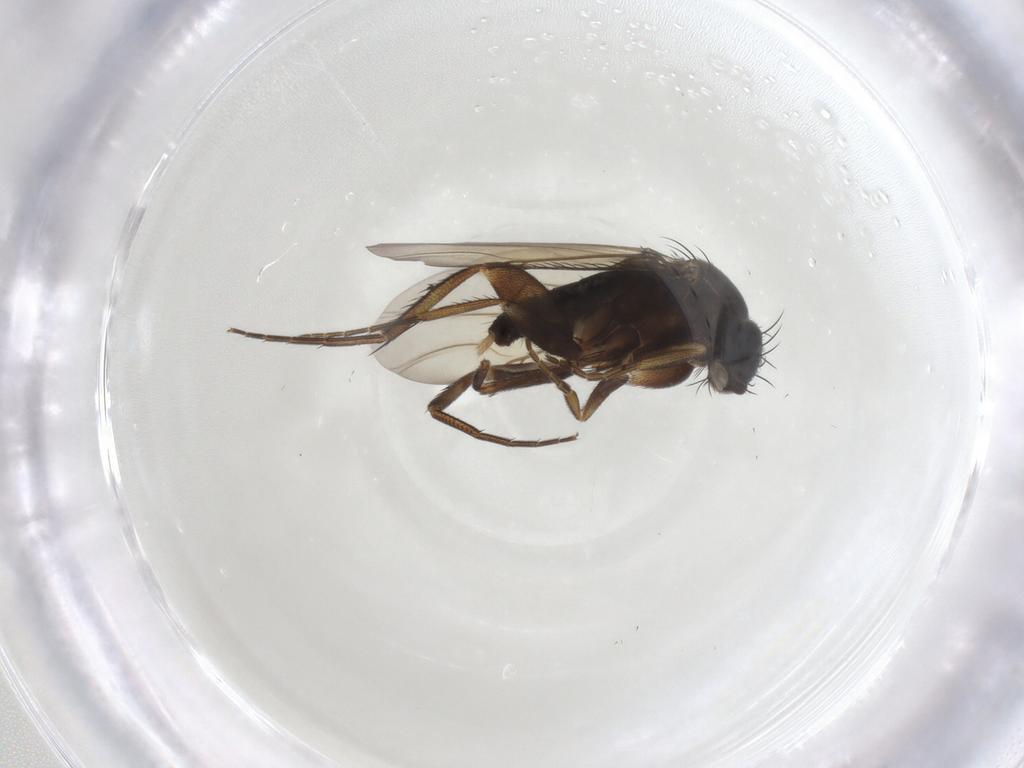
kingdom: Animalia
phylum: Arthropoda
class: Insecta
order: Diptera
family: Phoridae
